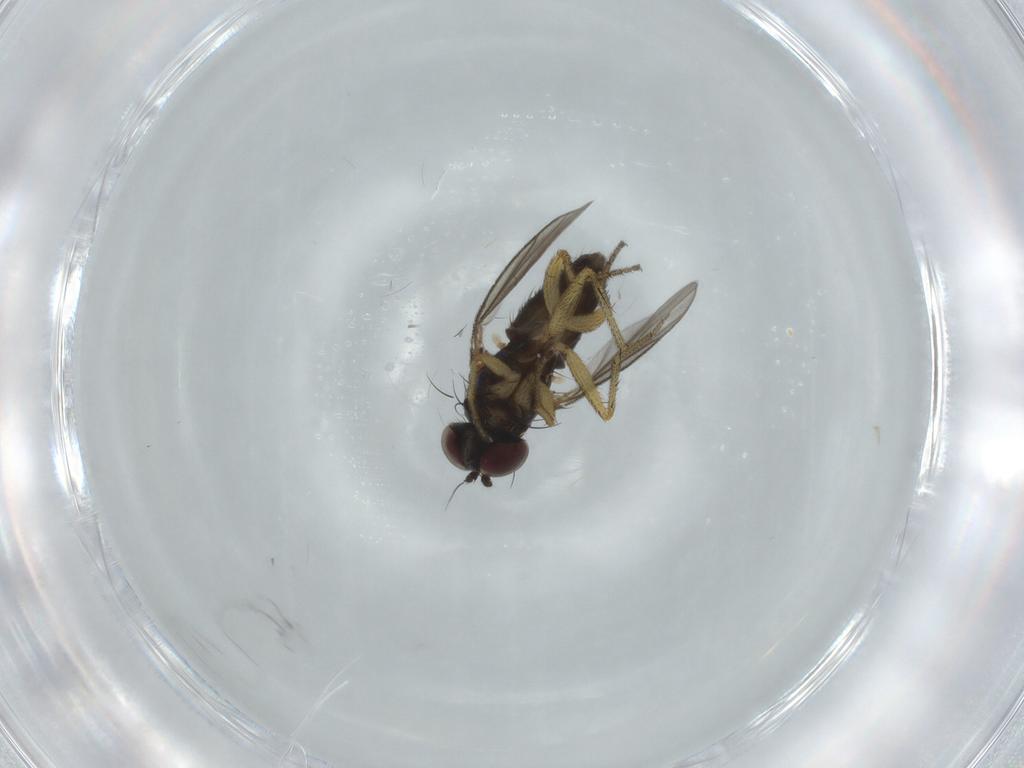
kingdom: Animalia
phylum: Arthropoda
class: Insecta
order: Diptera
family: Dolichopodidae
